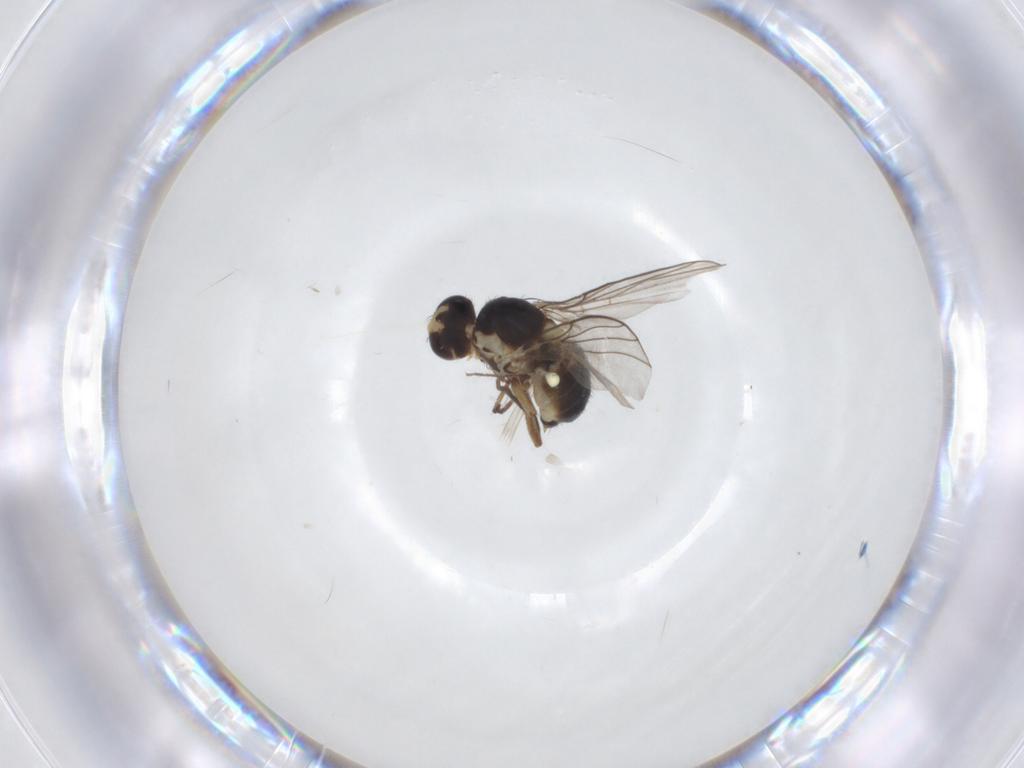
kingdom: Animalia
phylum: Arthropoda
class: Insecta
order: Diptera
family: Agromyzidae
